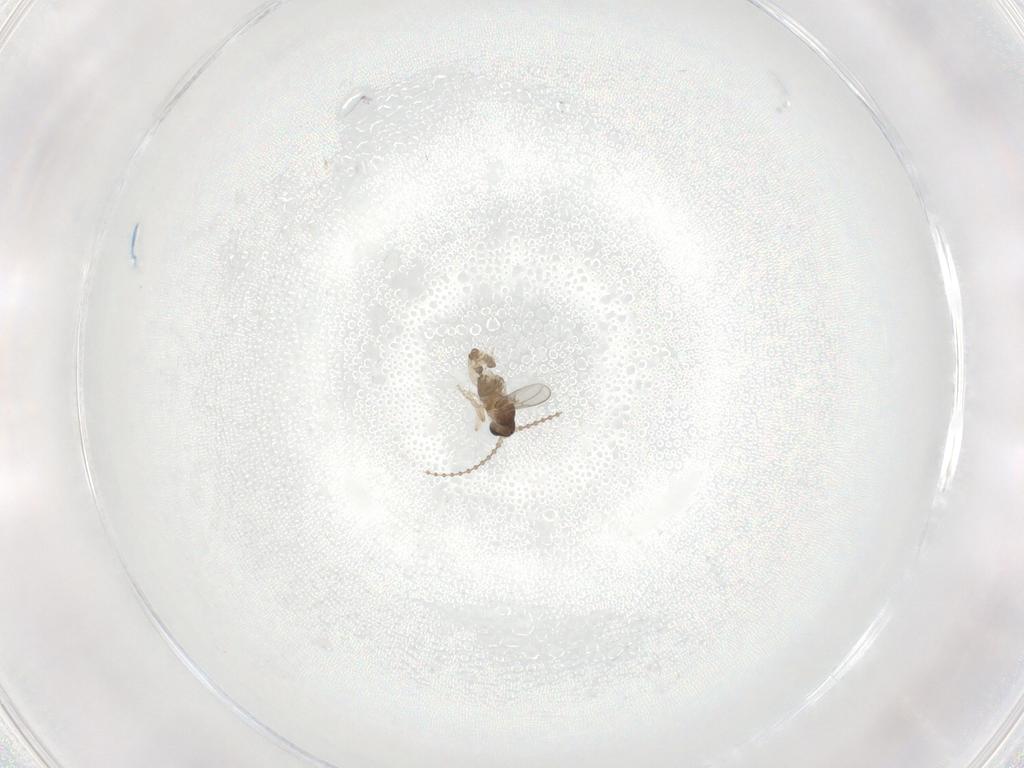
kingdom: Animalia
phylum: Arthropoda
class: Insecta
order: Diptera
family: Cecidomyiidae
